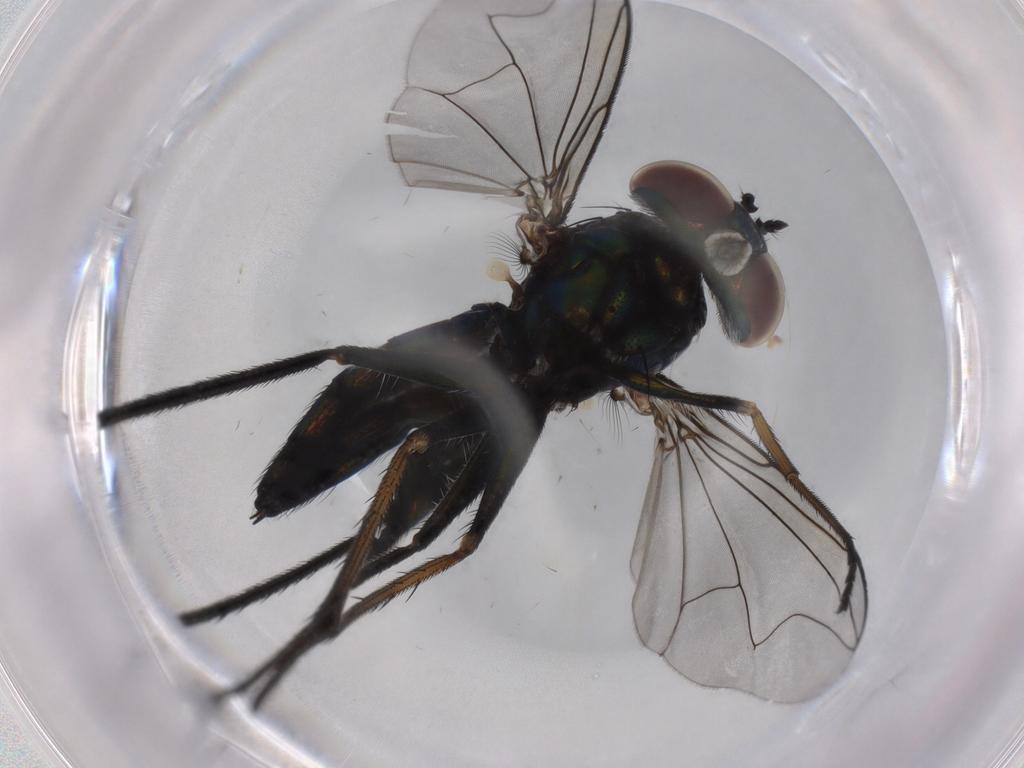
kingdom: Animalia
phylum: Arthropoda
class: Insecta
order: Diptera
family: Dolichopodidae
